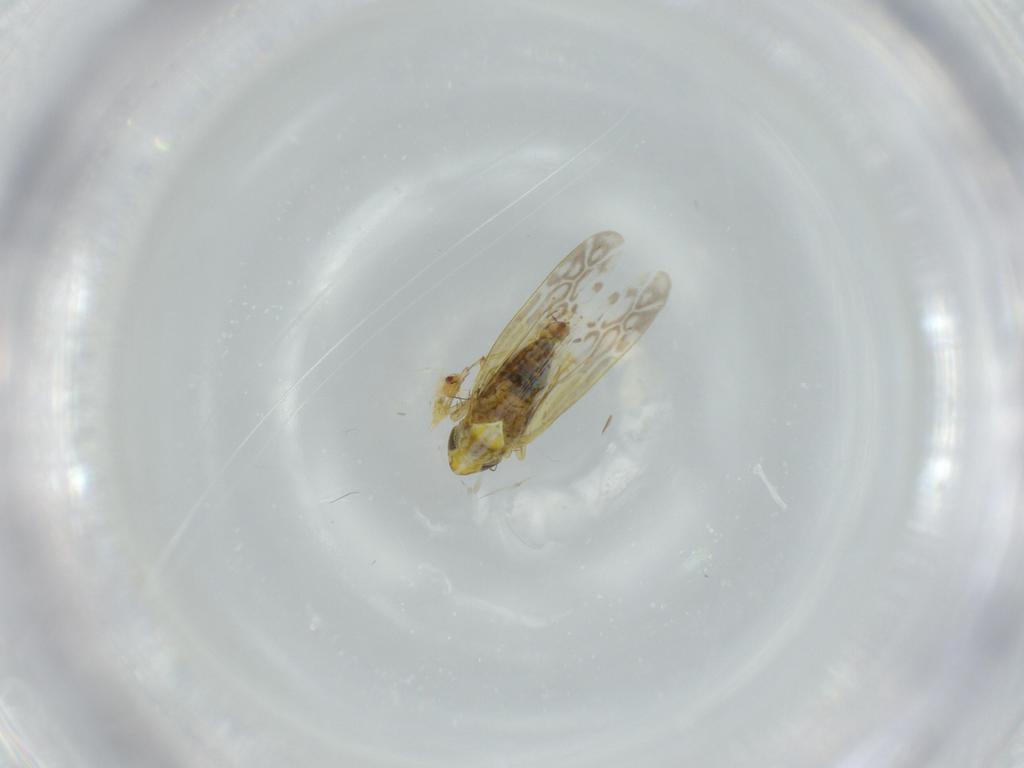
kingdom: Animalia
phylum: Arthropoda
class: Insecta
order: Hemiptera
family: Aleyrodidae
